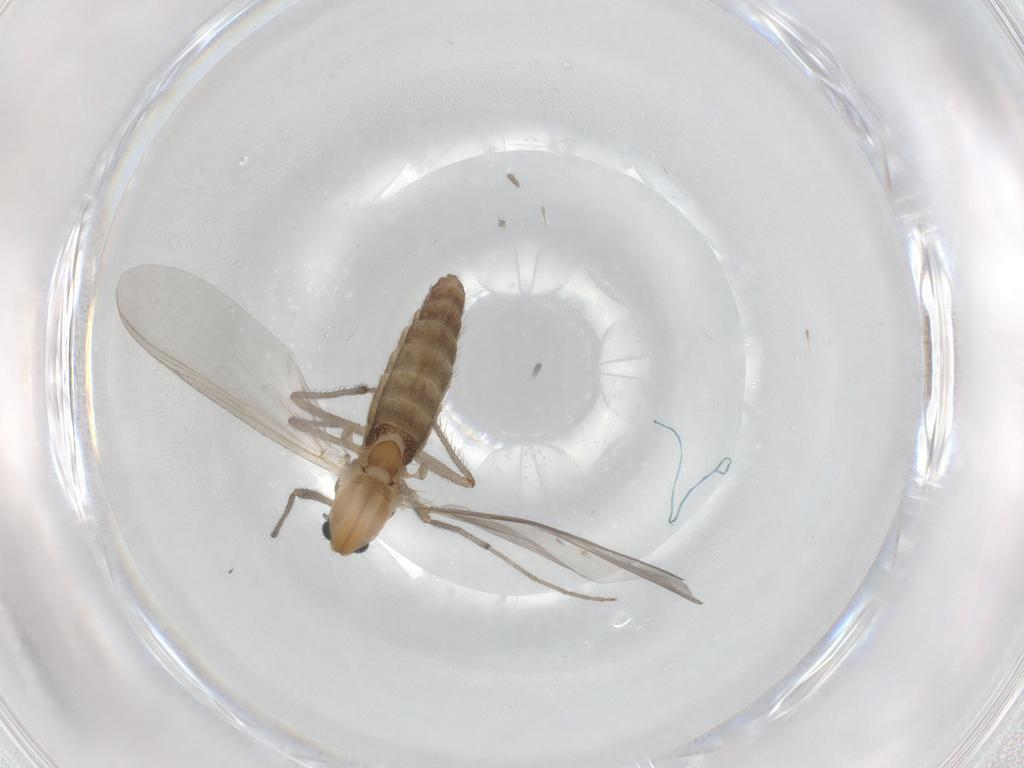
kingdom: Animalia
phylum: Arthropoda
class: Insecta
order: Diptera
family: Chironomidae
